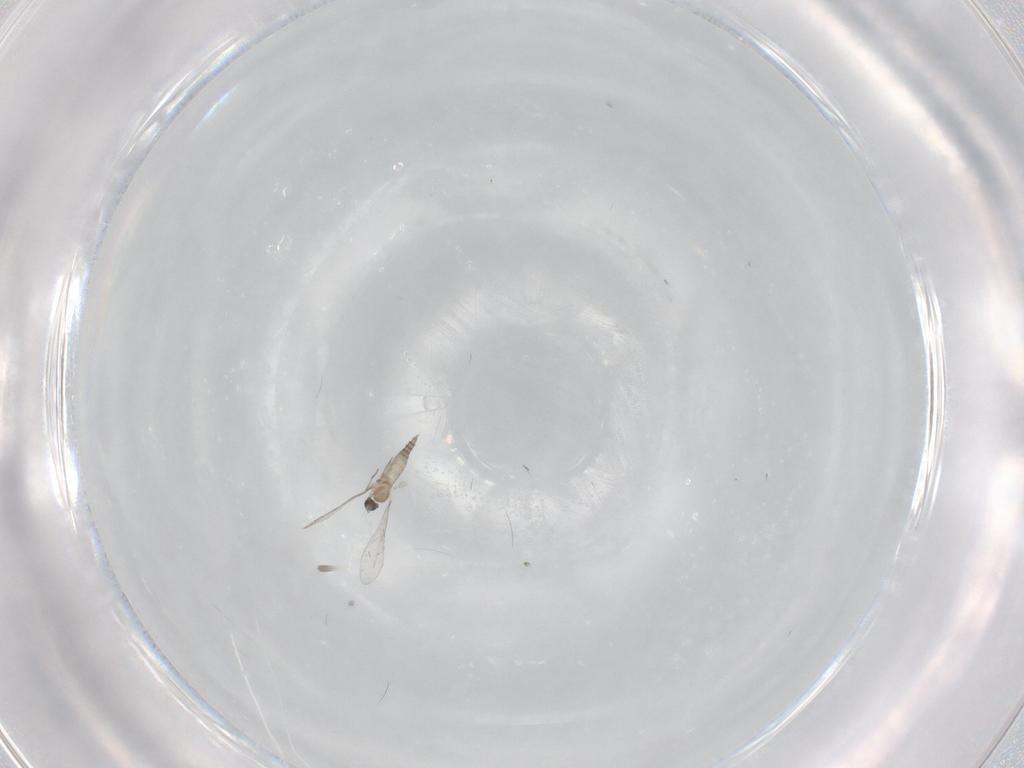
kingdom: Animalia
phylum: Arthropoda
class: Insecta
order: Diptera
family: Cecidomyiidae
